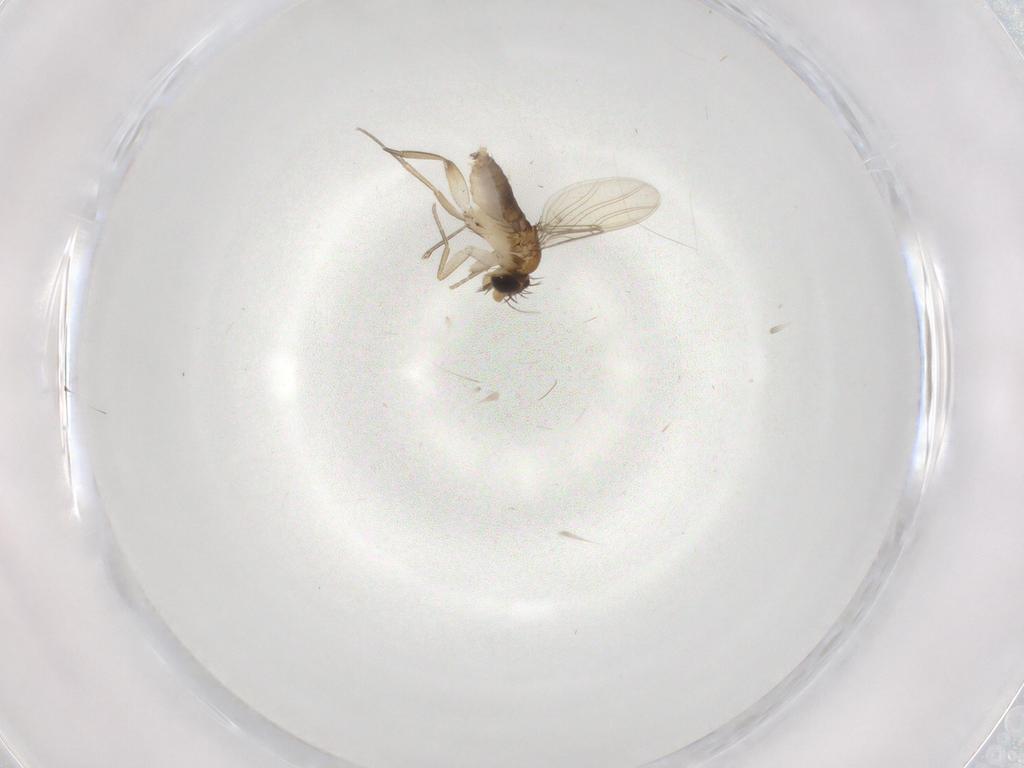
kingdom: Animalia
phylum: Arthropoda
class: Insecta
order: Diptera
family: Phoridae
